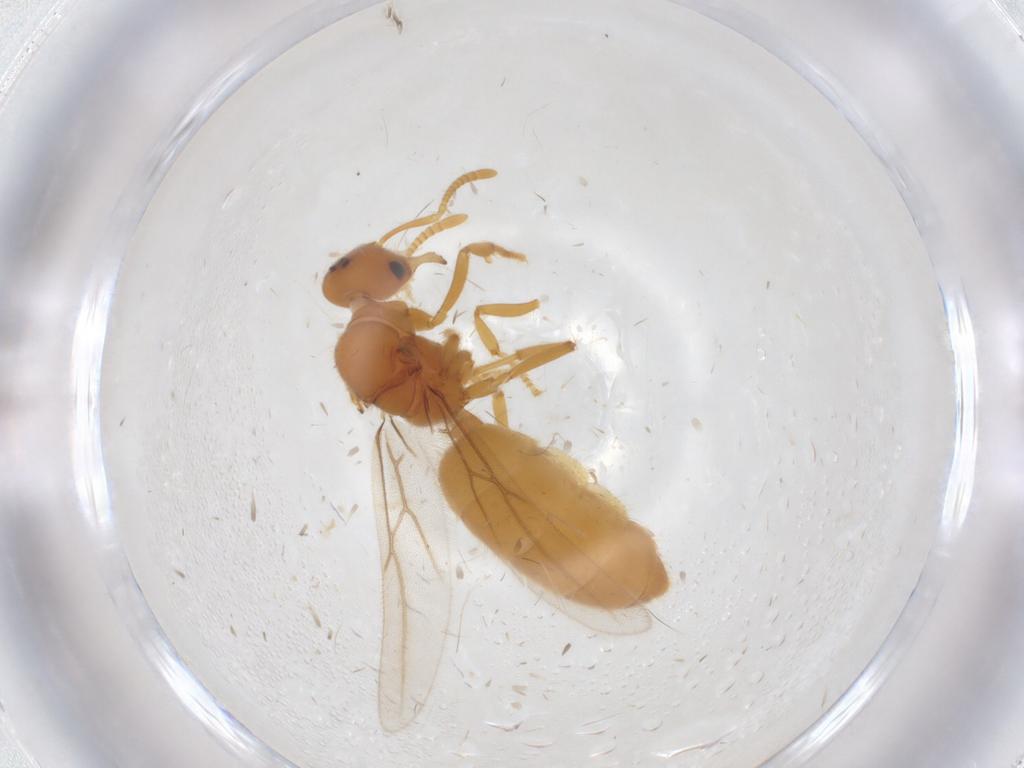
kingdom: Animalia
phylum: Arthropoda
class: Insecta
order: Hymenoptera
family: Formicidae
